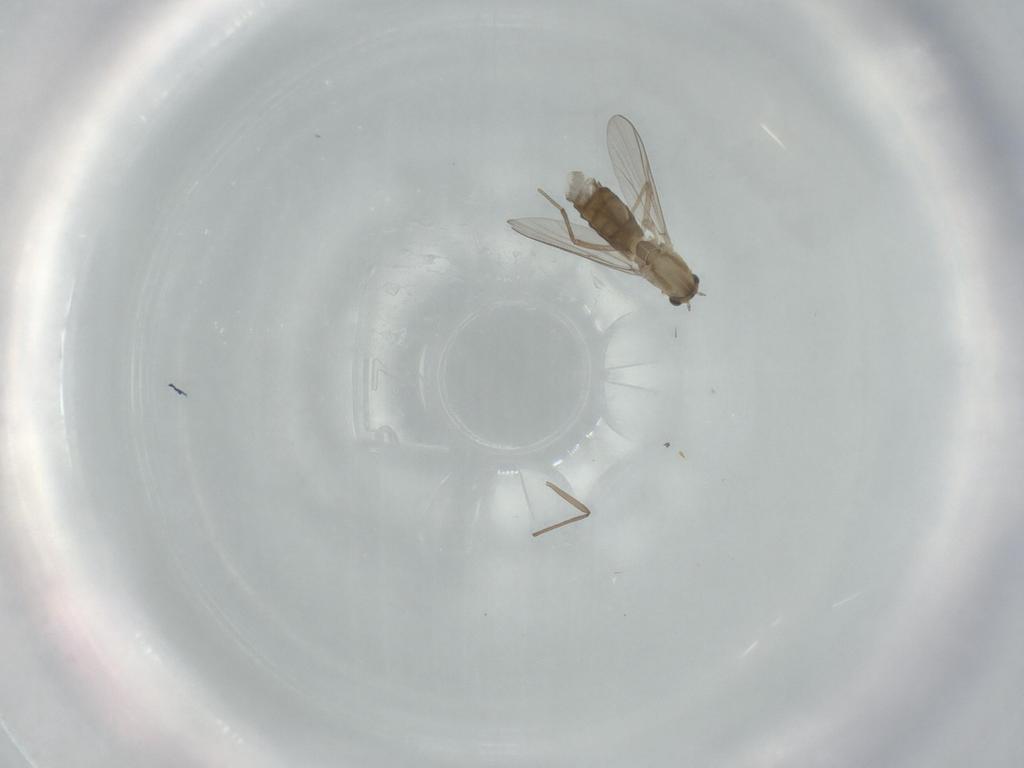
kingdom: Animalia
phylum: Arthropoda
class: Insecta
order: Diptera
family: Chironomidae
